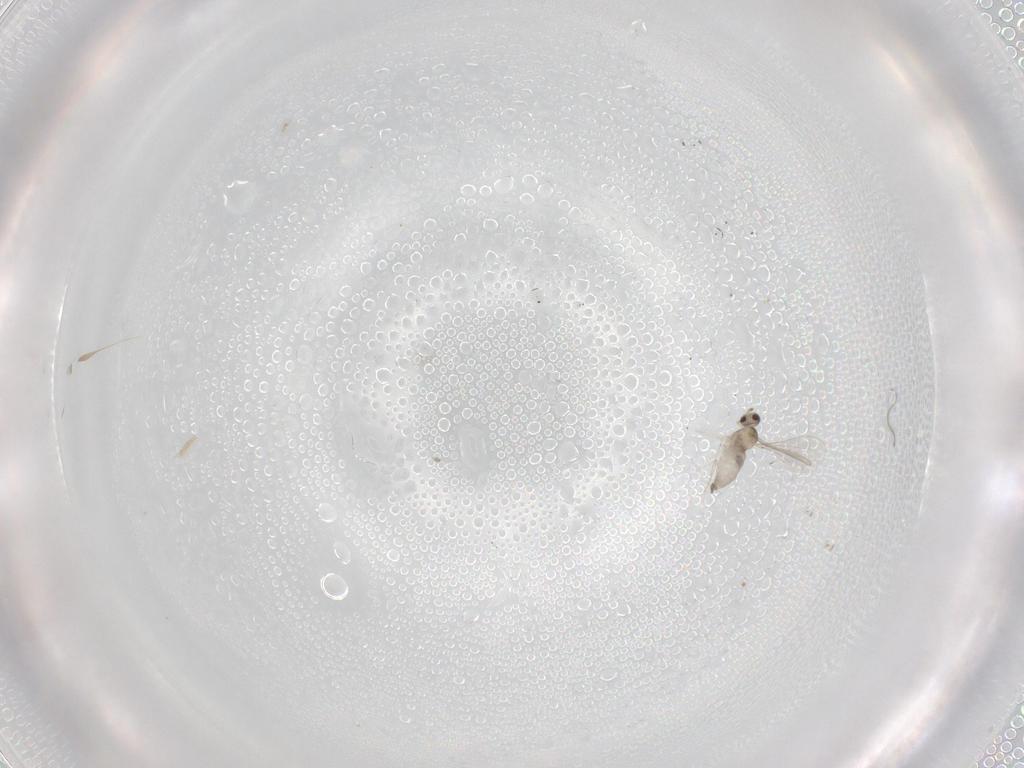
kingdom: Animalia
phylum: Arthropoda
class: Insecta
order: Diptera
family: Cecidomyiidae
